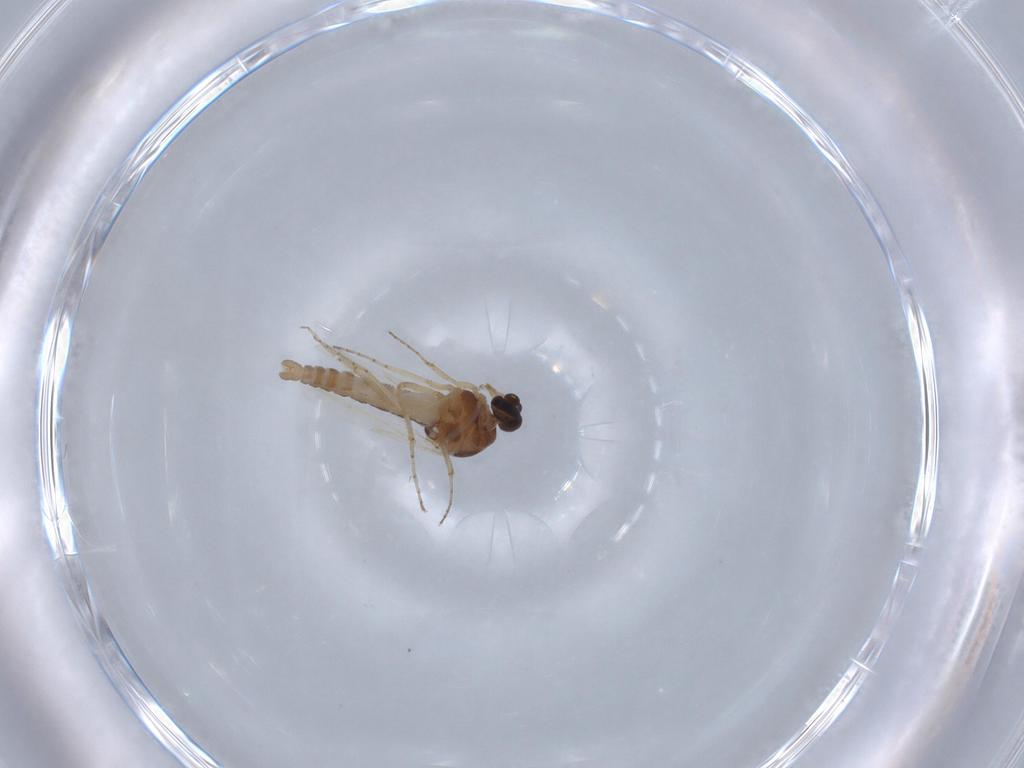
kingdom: Animalia
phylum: Arthropoda
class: Insecta
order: Diptera
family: Ceratopogonidae
